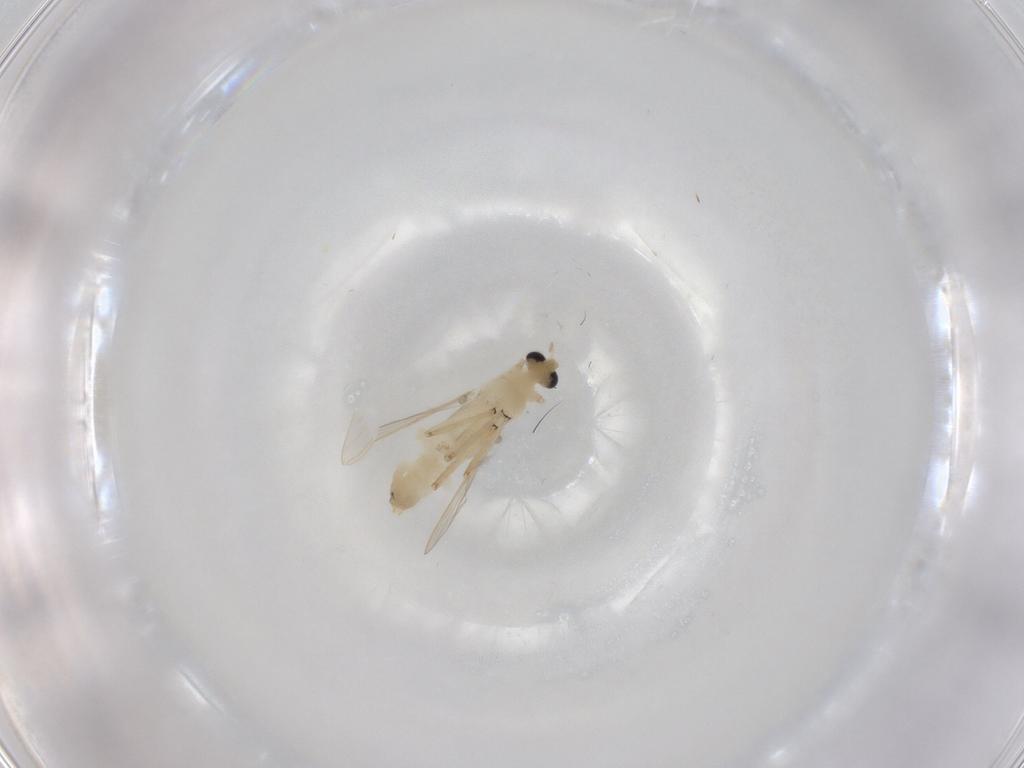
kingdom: Animalia
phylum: Arthropoda
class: Insecta
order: Diptera
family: Chironomidae
